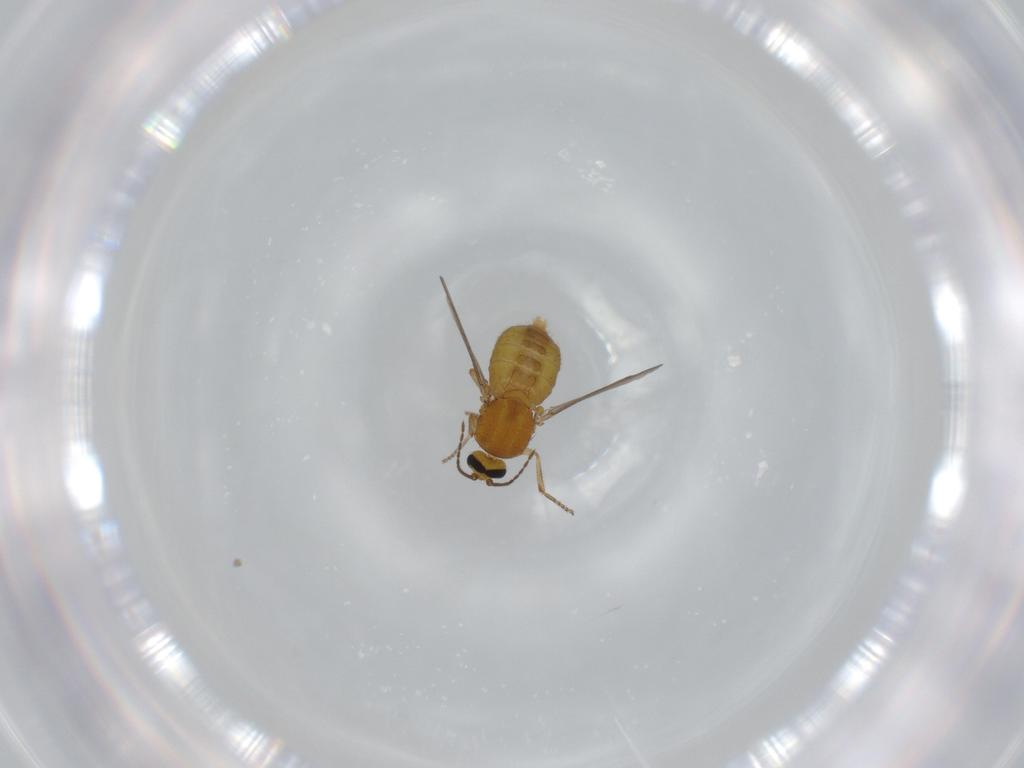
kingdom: Animalia
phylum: Arthropoda
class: Insecta
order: Diptera
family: Ceratopogonidae
